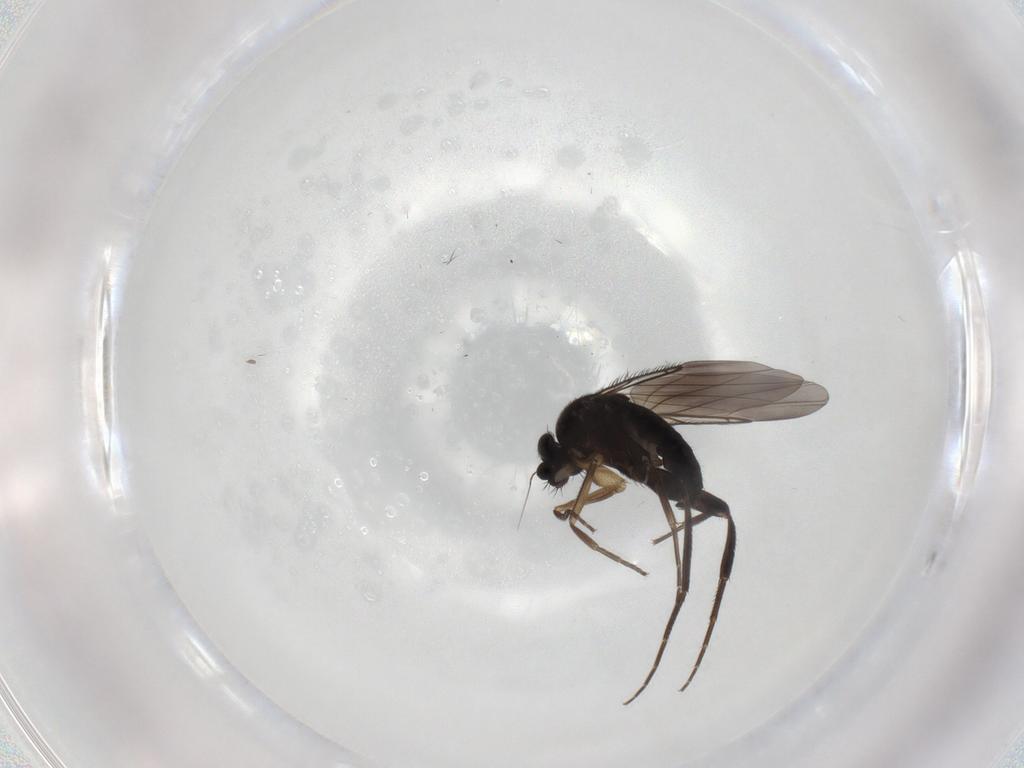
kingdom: Animalia
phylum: Arthropoda
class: Insecta
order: Diptera
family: Phoridae
